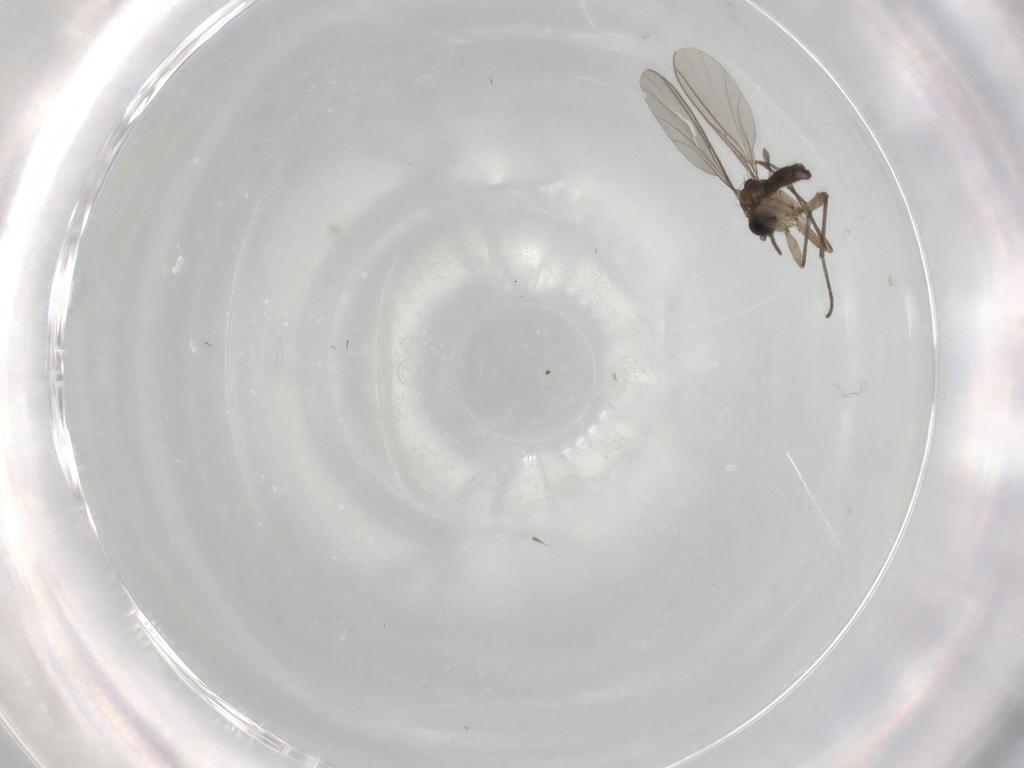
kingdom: Animalia
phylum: Arthropoda
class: Insecta
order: Diptera
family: Sciaridae
